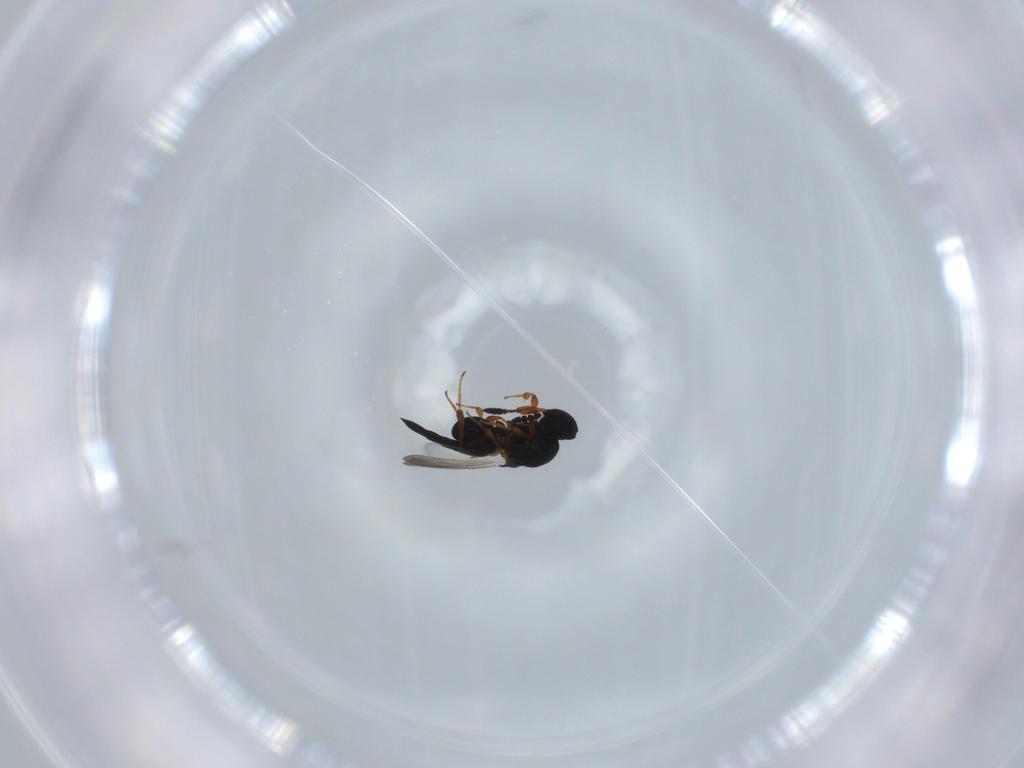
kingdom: Animalia
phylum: Arthropoda
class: Insecta
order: Hymenoptera
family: Platygastridae
